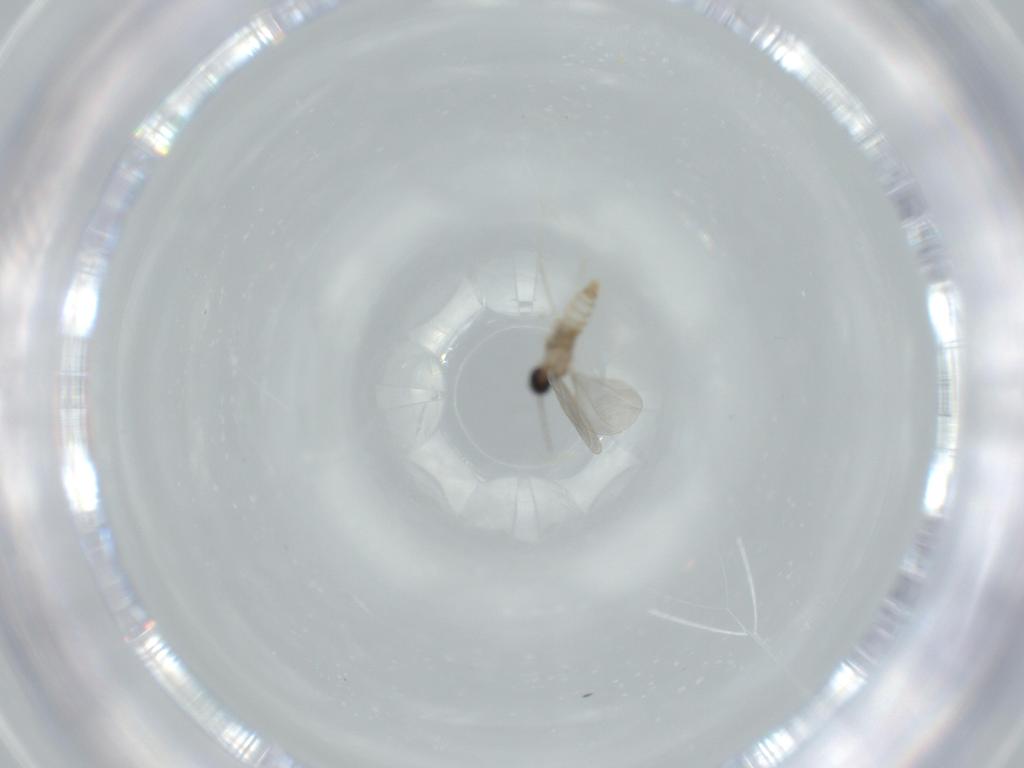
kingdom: Animalia
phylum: Arthropoda
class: Insecta
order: Diptera
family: Cecidomyiidae
